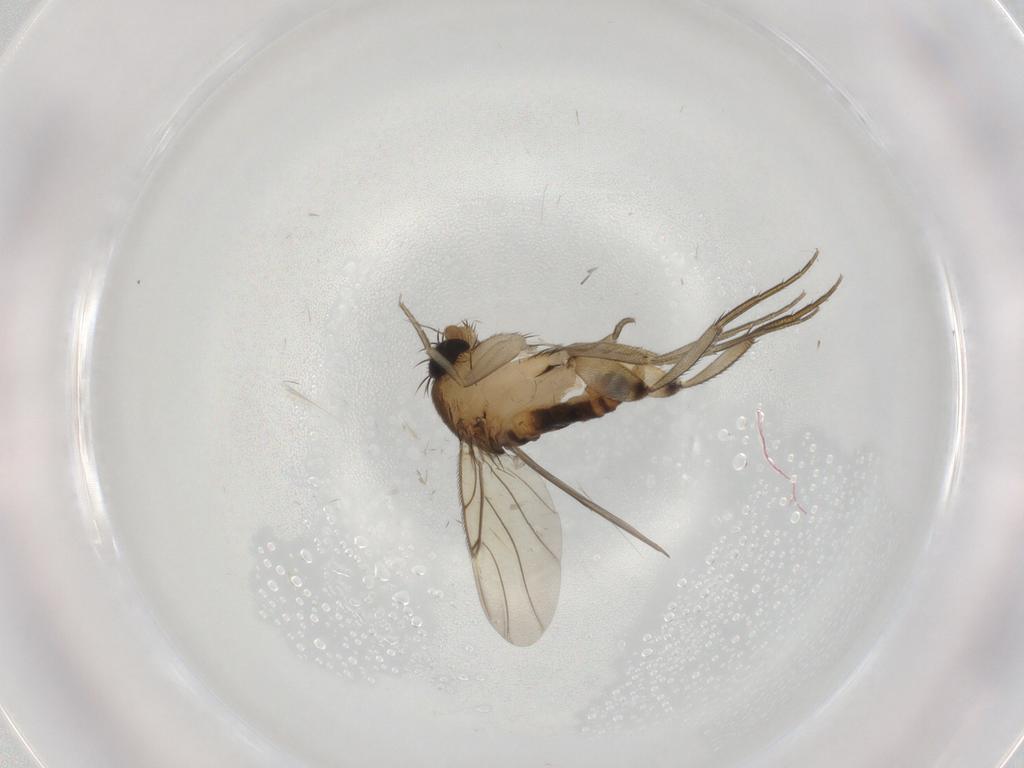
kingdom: Animalia
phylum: Arthropoda
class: Insecta
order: Diptera
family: Phoridae
